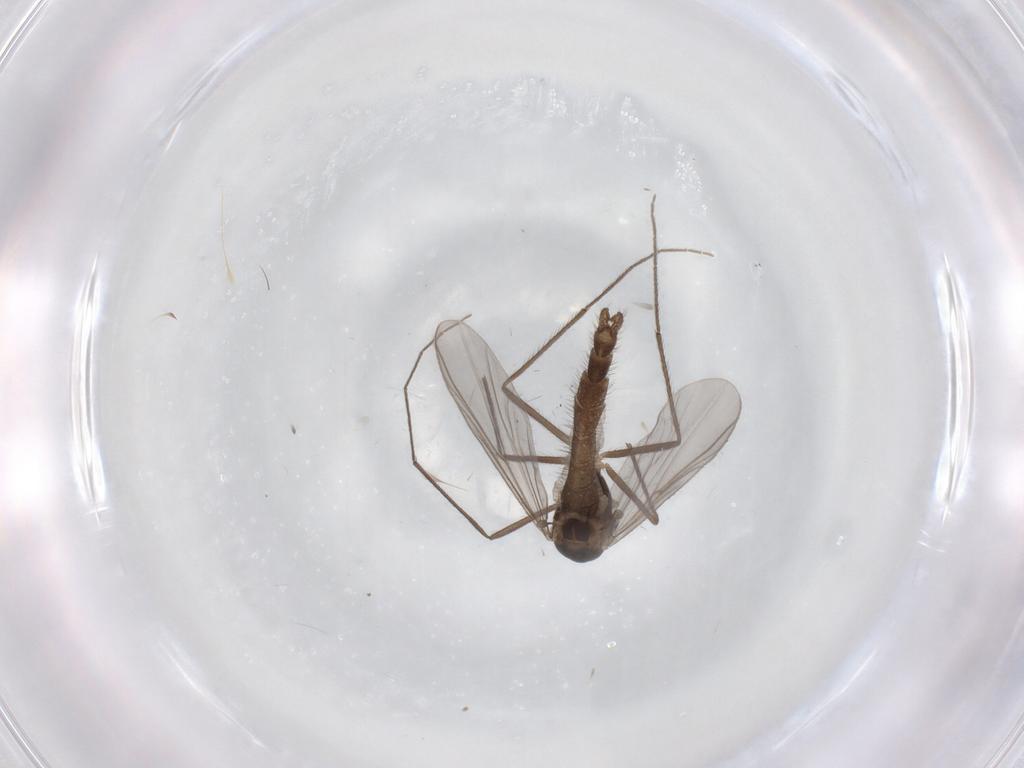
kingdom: Animalia
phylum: Arthropoda
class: Insecta
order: Diptera
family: Chironomidae
